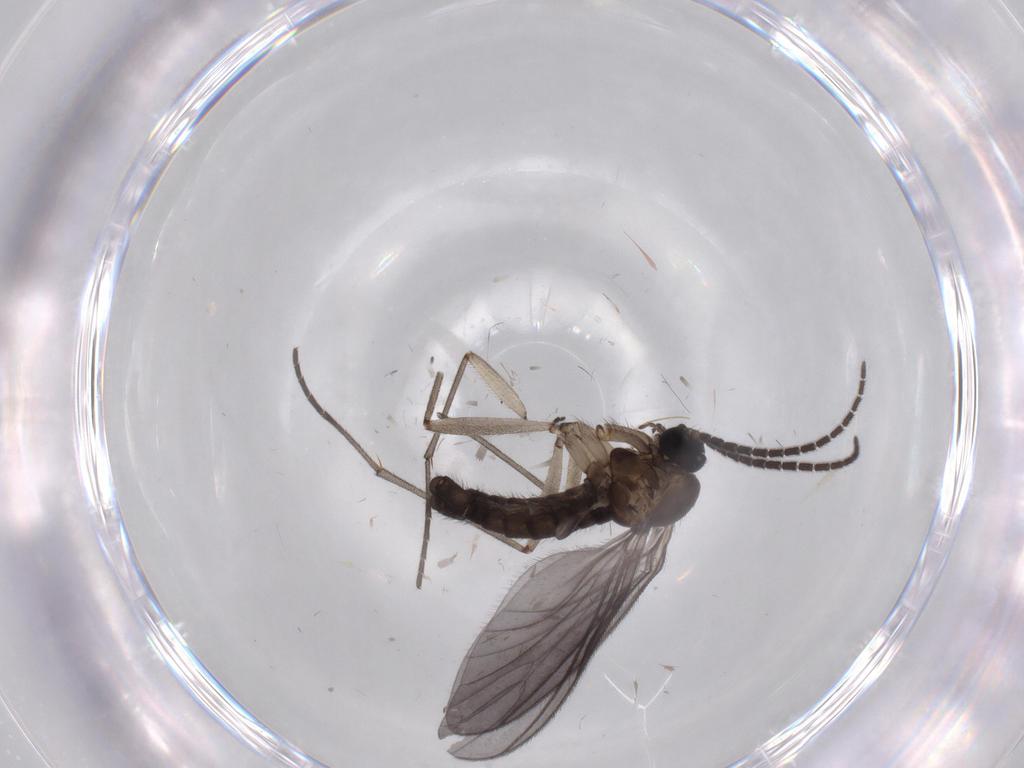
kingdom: Animalia
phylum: Arthropoda
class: Insecta
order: Diptera
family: Sciaridae
